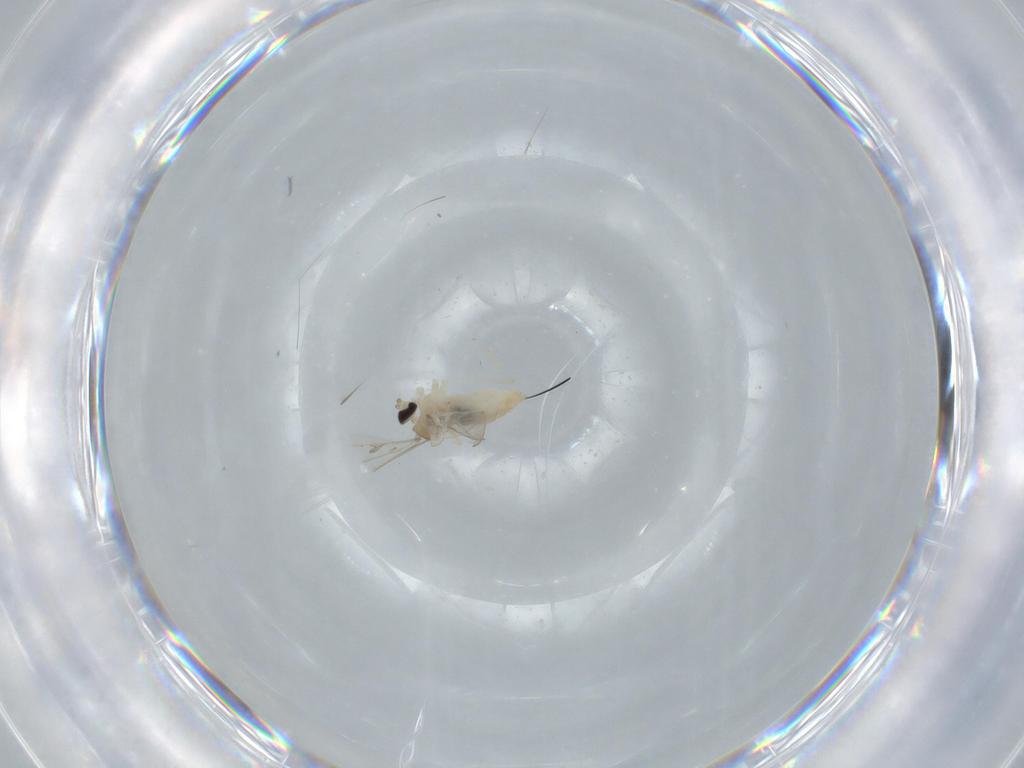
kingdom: Animalia
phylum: Arthropoda
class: Insecta
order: Diptera
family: Cecidomyiidae
